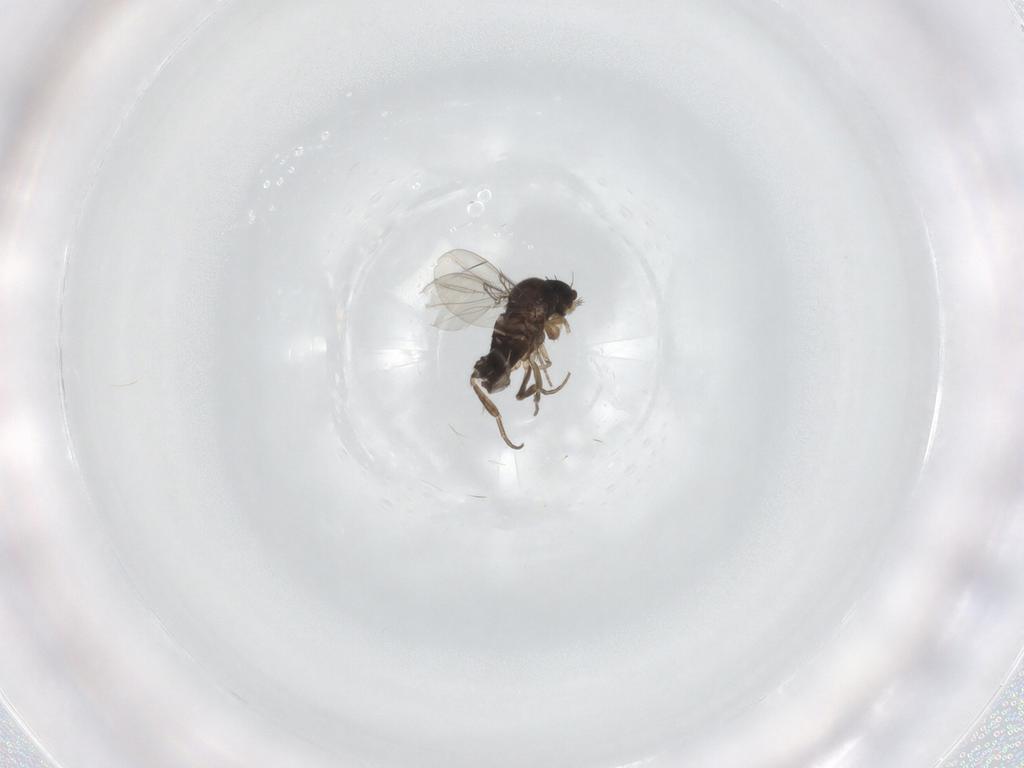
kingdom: Animalia
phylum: Arthropoda
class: Insecta
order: Diptera
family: Phoridae
